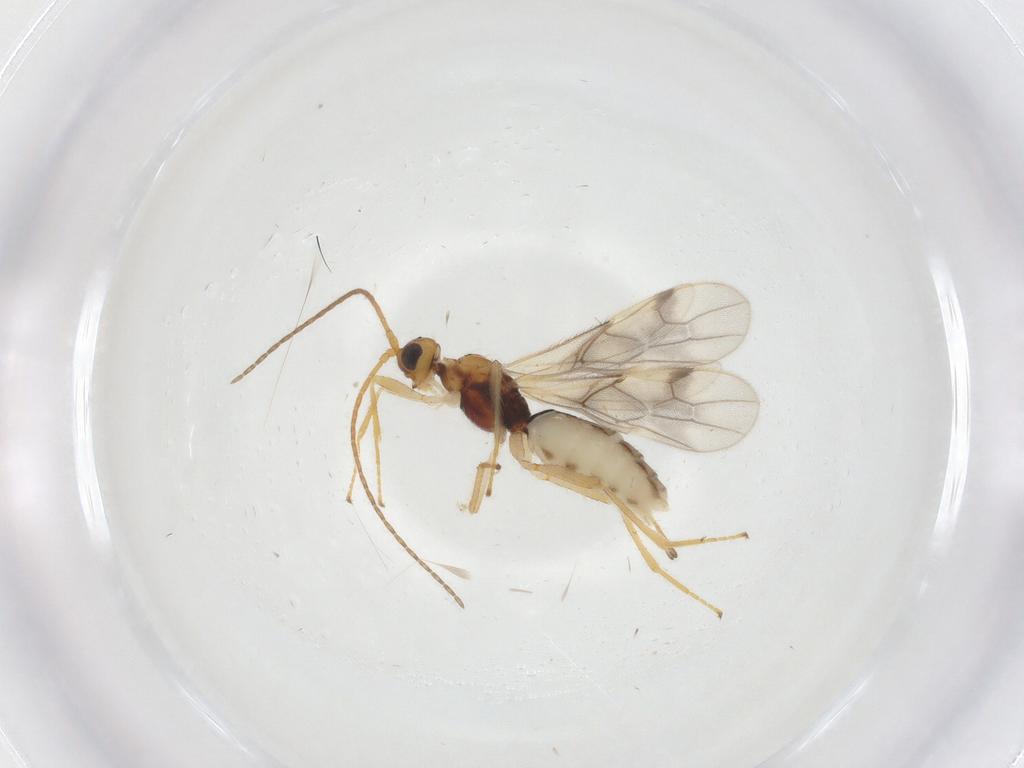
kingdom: Animalia
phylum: Arthropoda
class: Insecta
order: Hymenoptera
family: Braconidae
